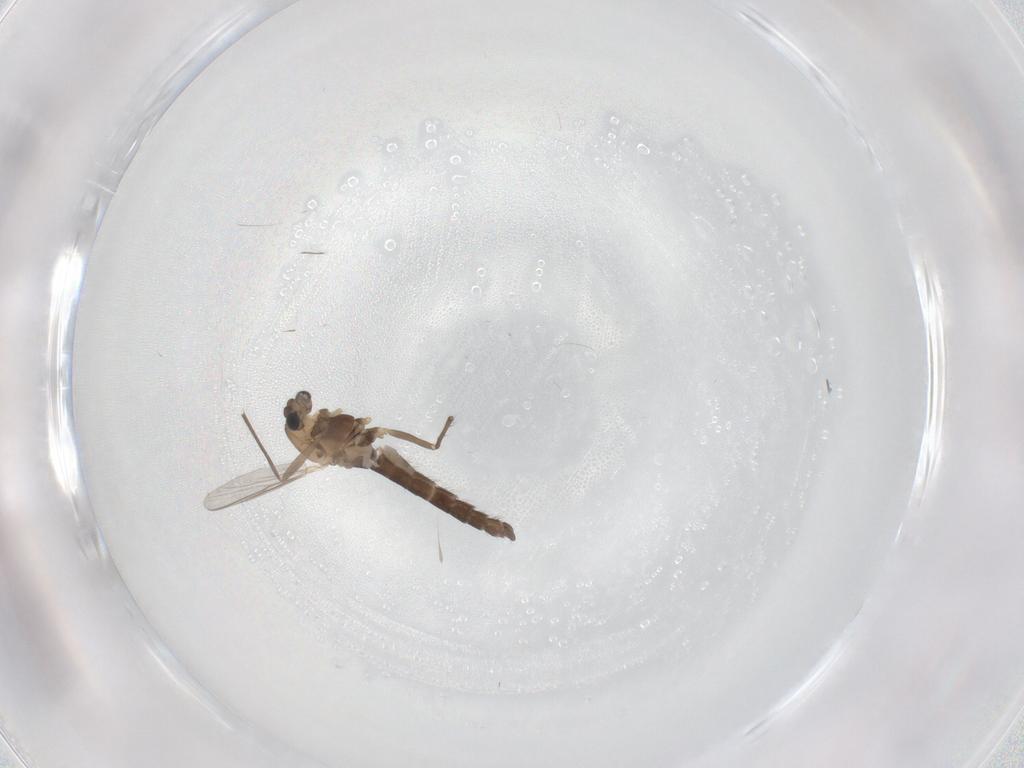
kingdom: Animalia
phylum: Arthropoda
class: Insecta
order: Diptera
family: Chironomidae
